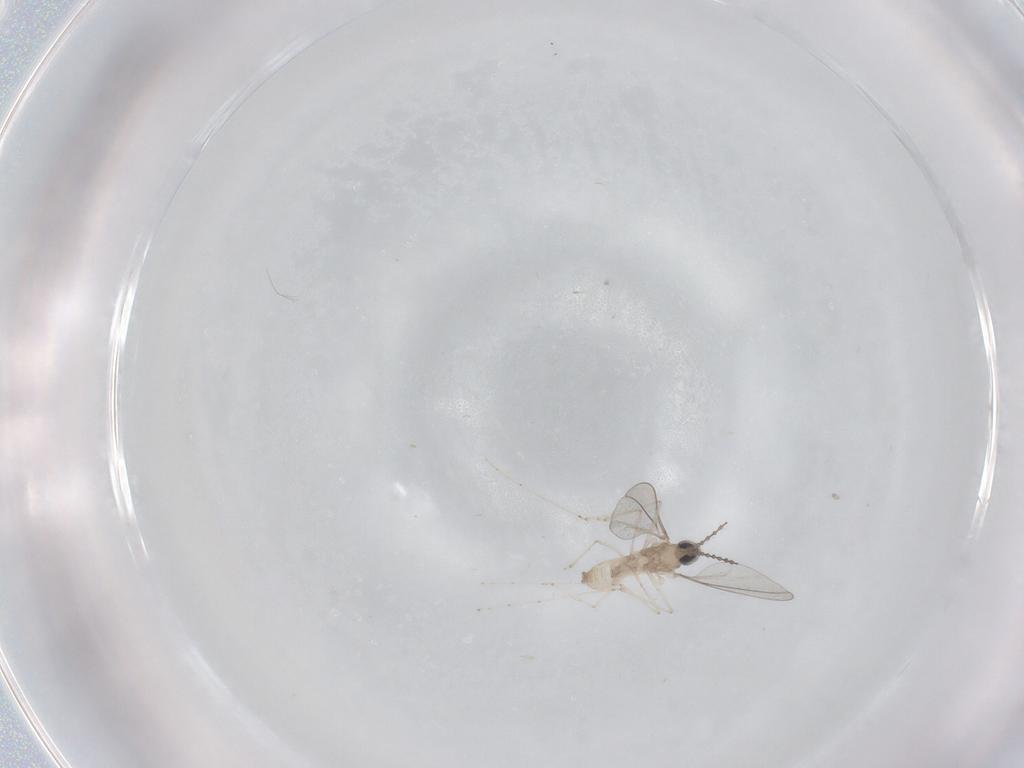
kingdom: Animalia
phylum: Arthropoda
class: Insecta
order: Diptera
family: Cecidomyiidae
